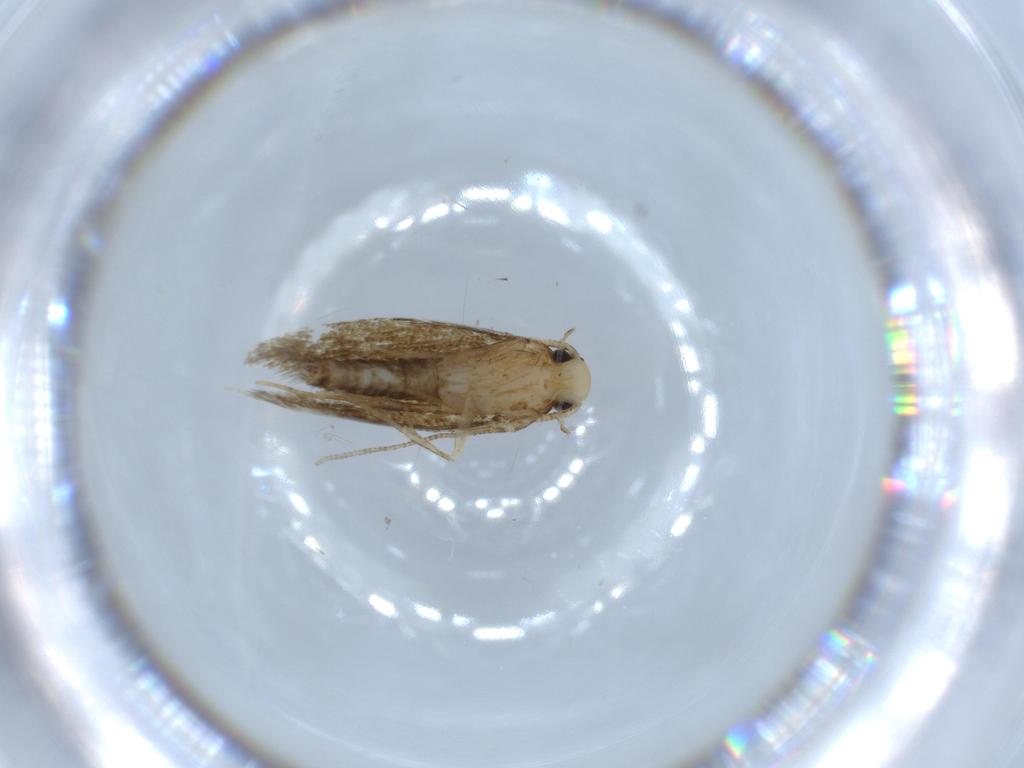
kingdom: Animalia
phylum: Arthropoda
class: Insecta
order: Lepidoptera
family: Tineidae
